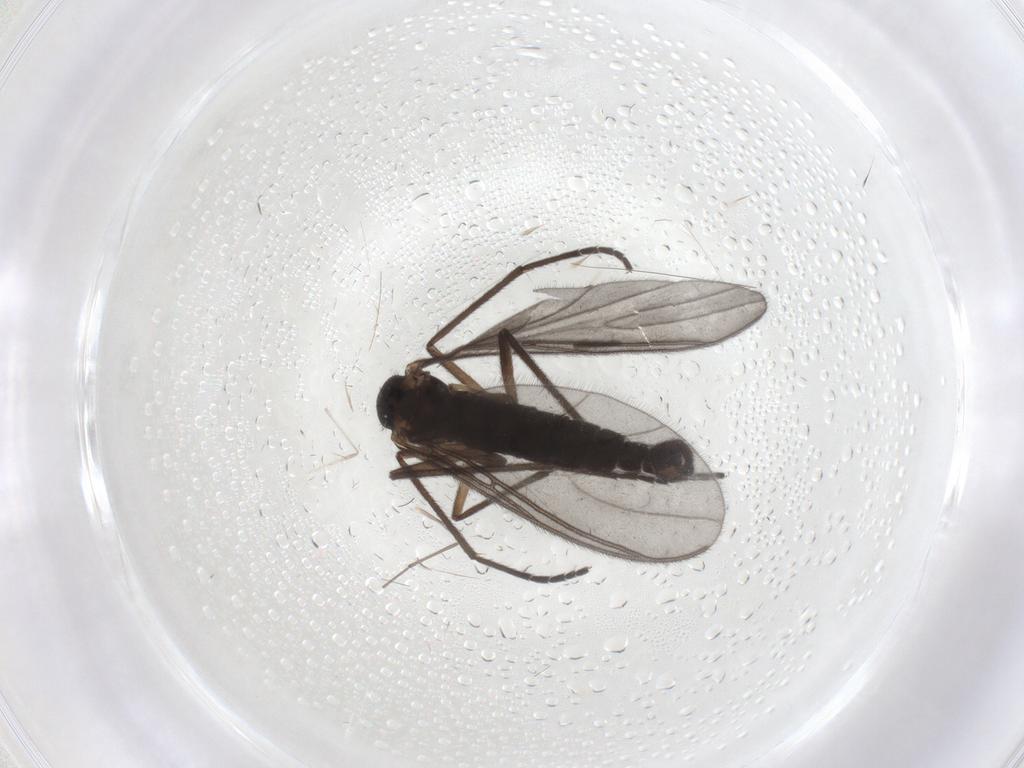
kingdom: Animalia
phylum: Arthropoda
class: Insecta
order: Diptera
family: Sciaridae
